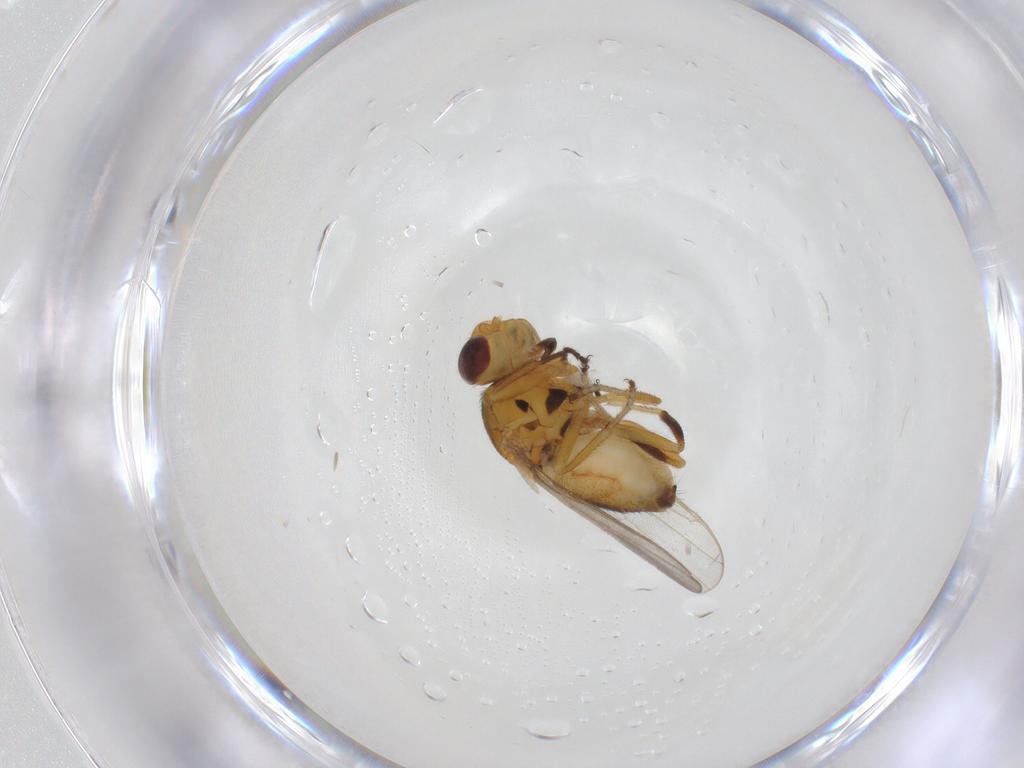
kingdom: Animalia
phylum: Arthropoda
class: Insecta
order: Diptera
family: Chloropidae
